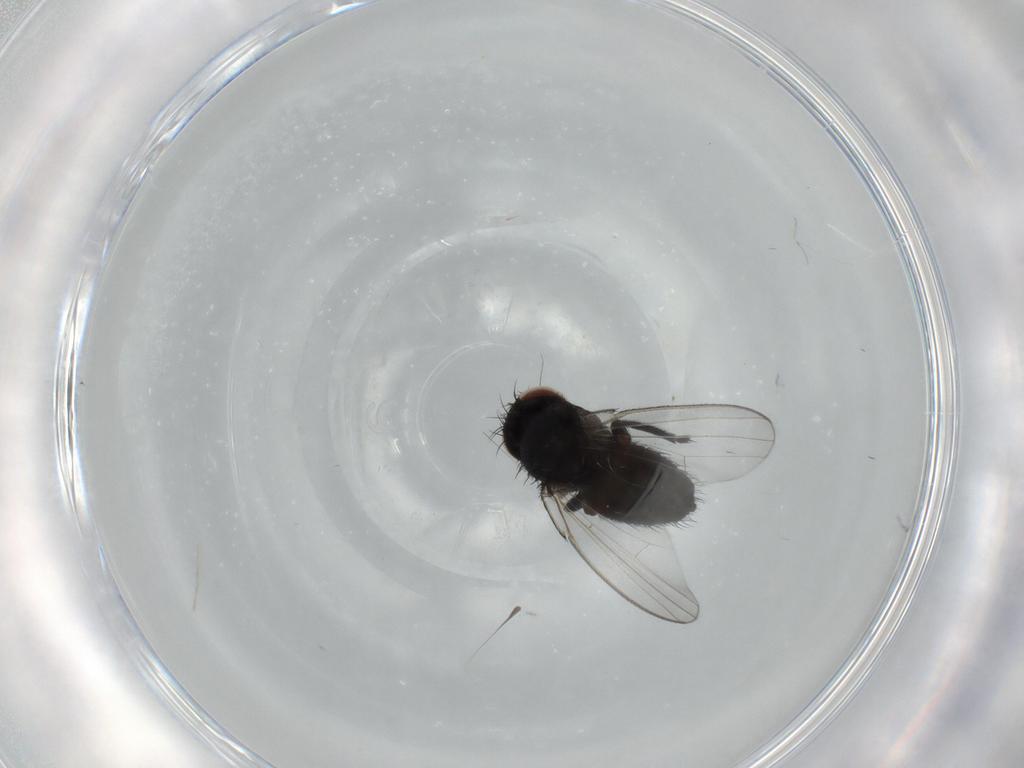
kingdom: Animalia
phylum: Arthropoda
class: Insecta
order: Diptera
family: Milichiidae
